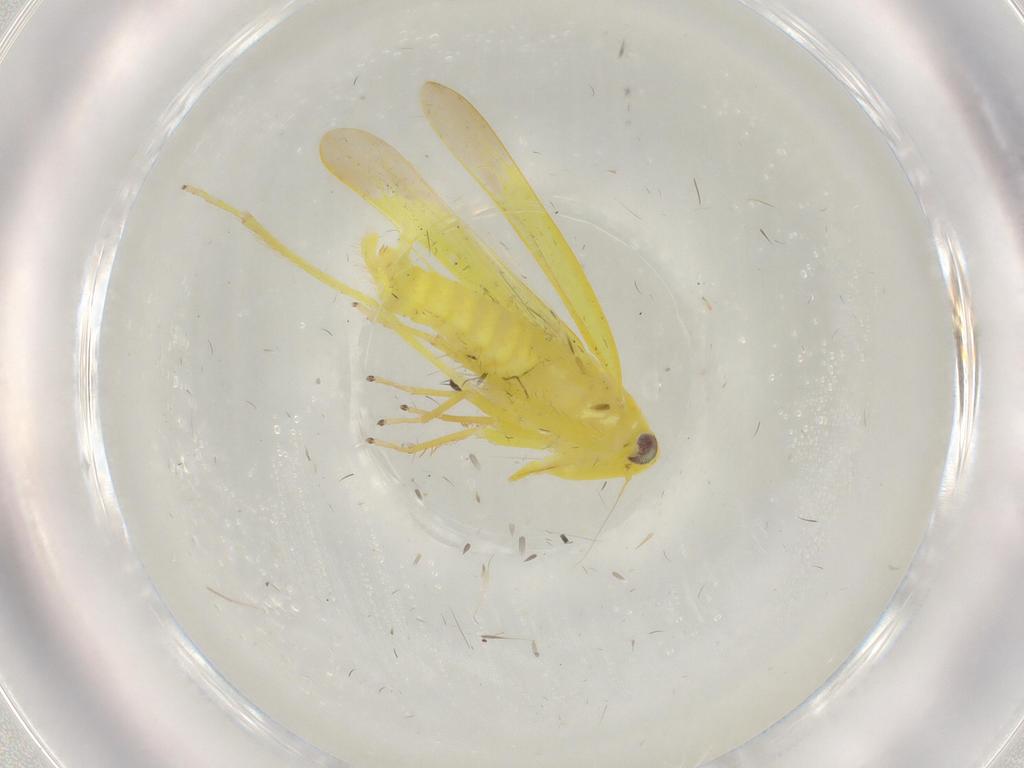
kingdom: Animalia
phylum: Arthropoda
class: Insecta
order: Hemiptera
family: Cicadellidae
